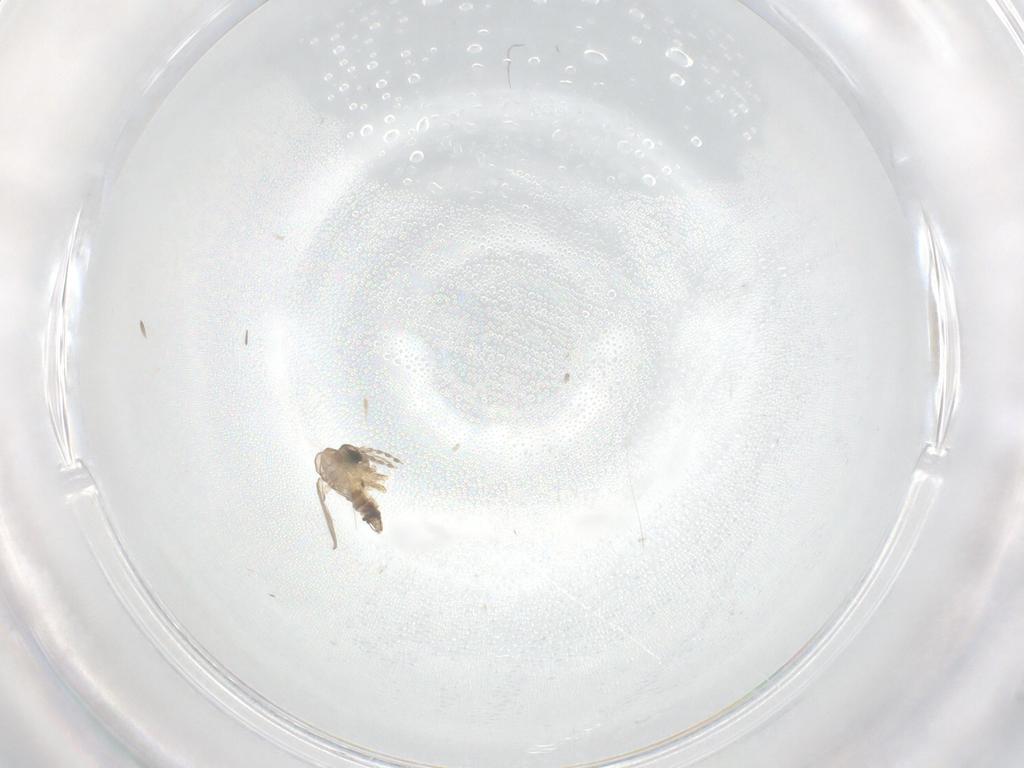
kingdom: Animalia
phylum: Arthropoda
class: Insecta
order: Diptera
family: Psychodidae
